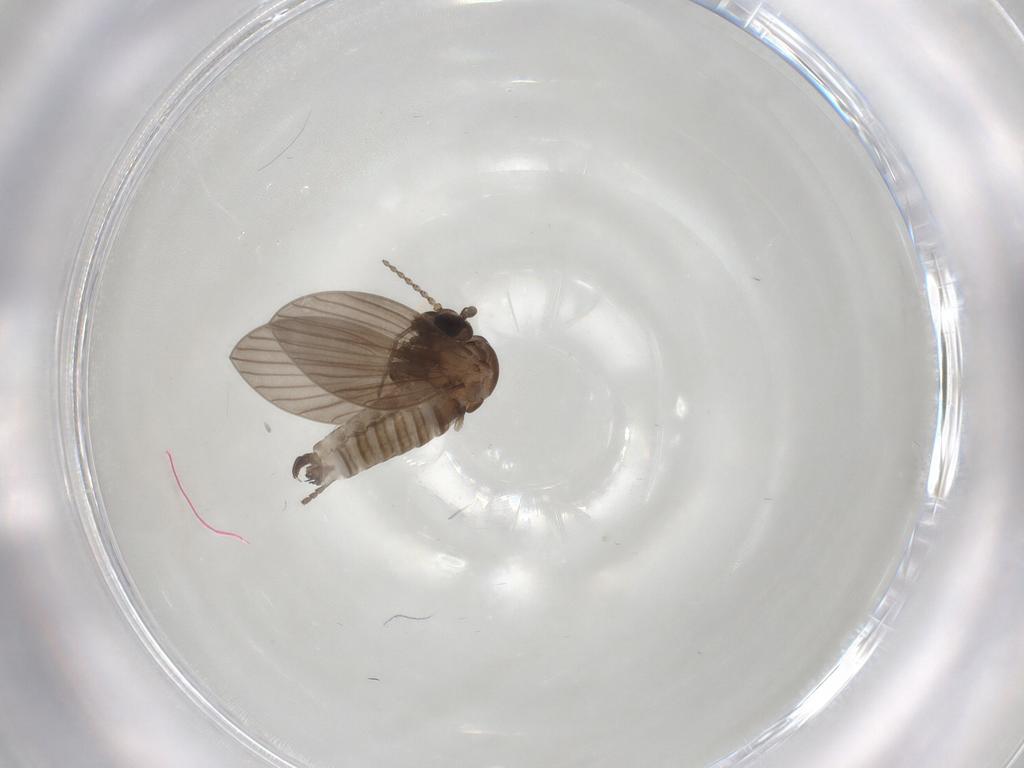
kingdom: Animalia
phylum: Arthropoda
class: Insecta
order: Diptera
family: Psychodidae
